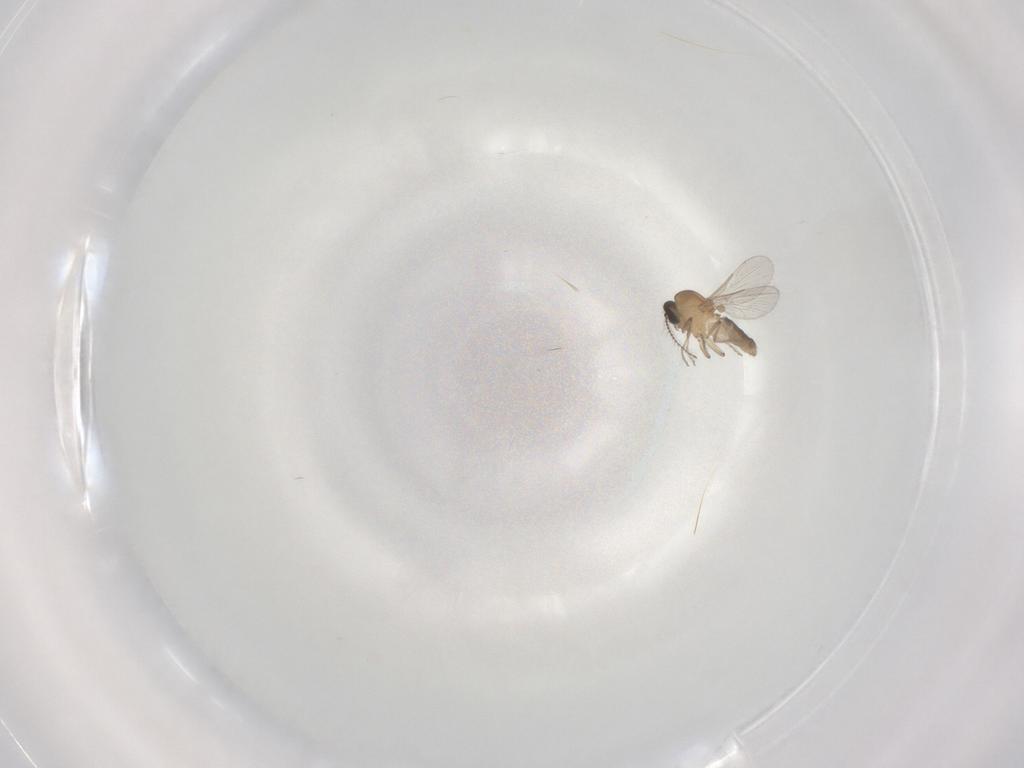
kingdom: Animalia
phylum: Arthropoda
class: Insecta
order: Diptera
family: Ceratopogonidae
